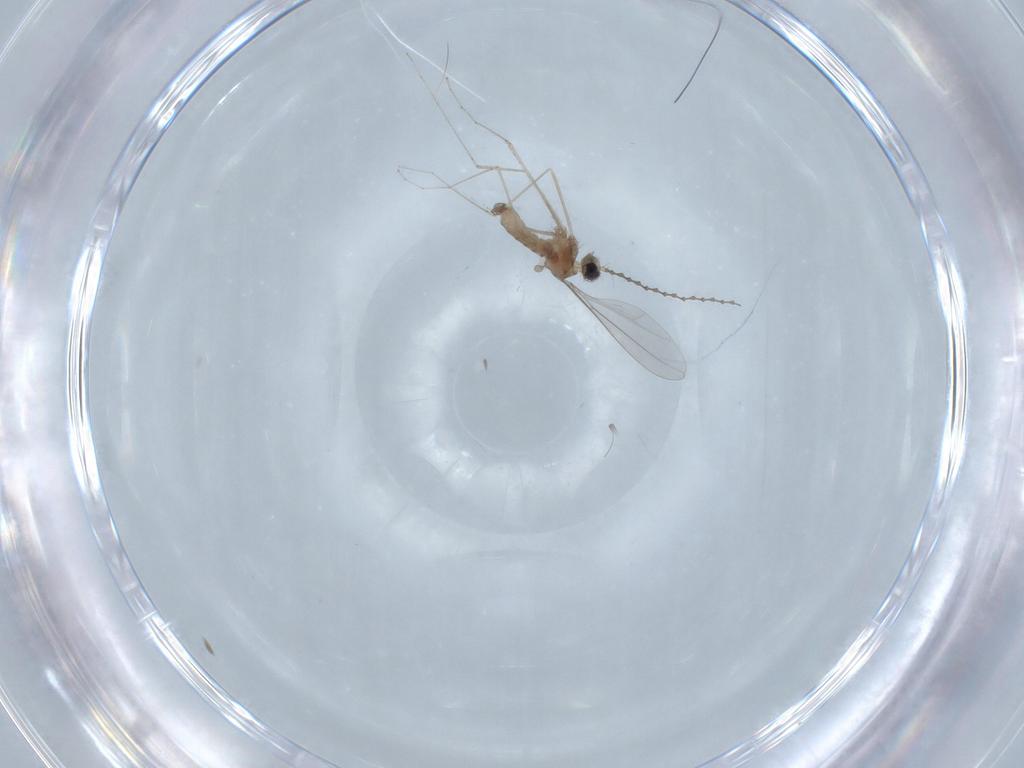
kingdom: Animalia
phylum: Arthropoda
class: Insecta
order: Diptera
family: Cecidomyiidae
